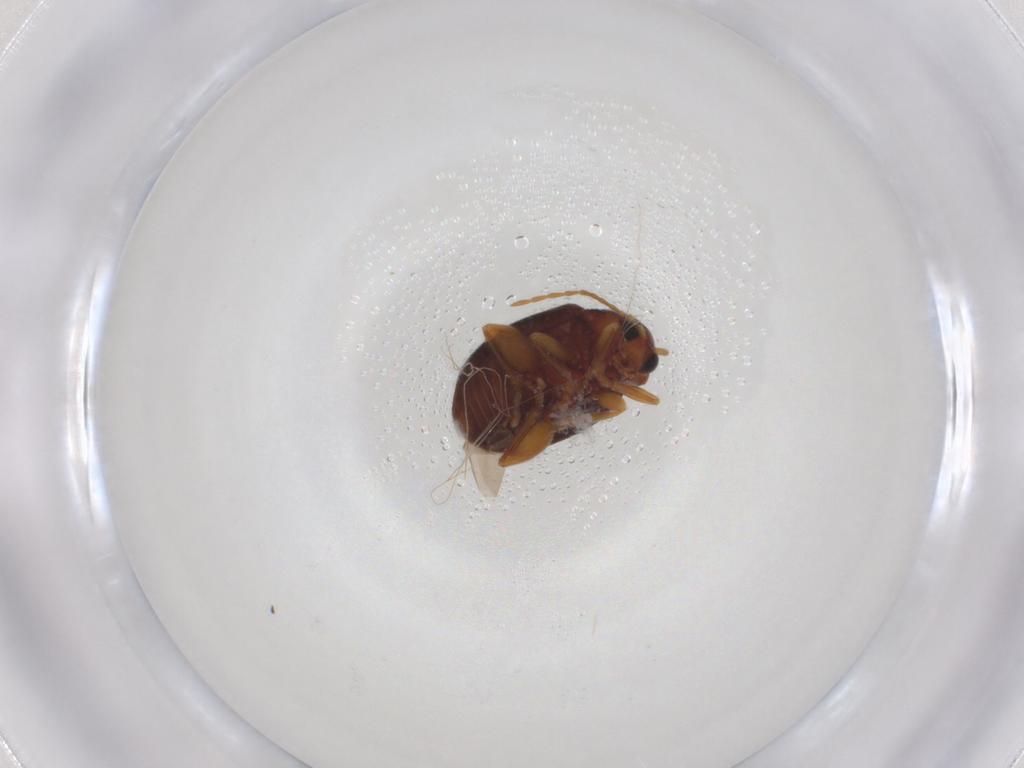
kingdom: Animalia
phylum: Arthropoda
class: Insecta
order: Coleoptera
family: Chrysomelidae
